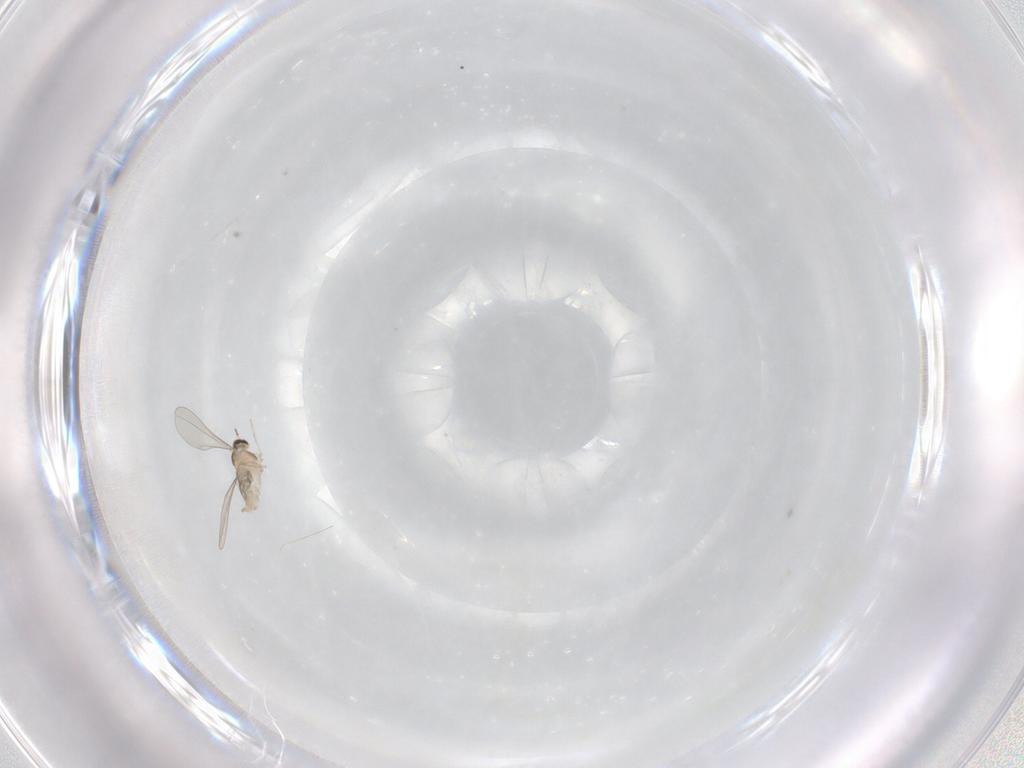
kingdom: Animalia
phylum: Arthropoda
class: Insecta
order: Diptera
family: Cecidomyiidae
